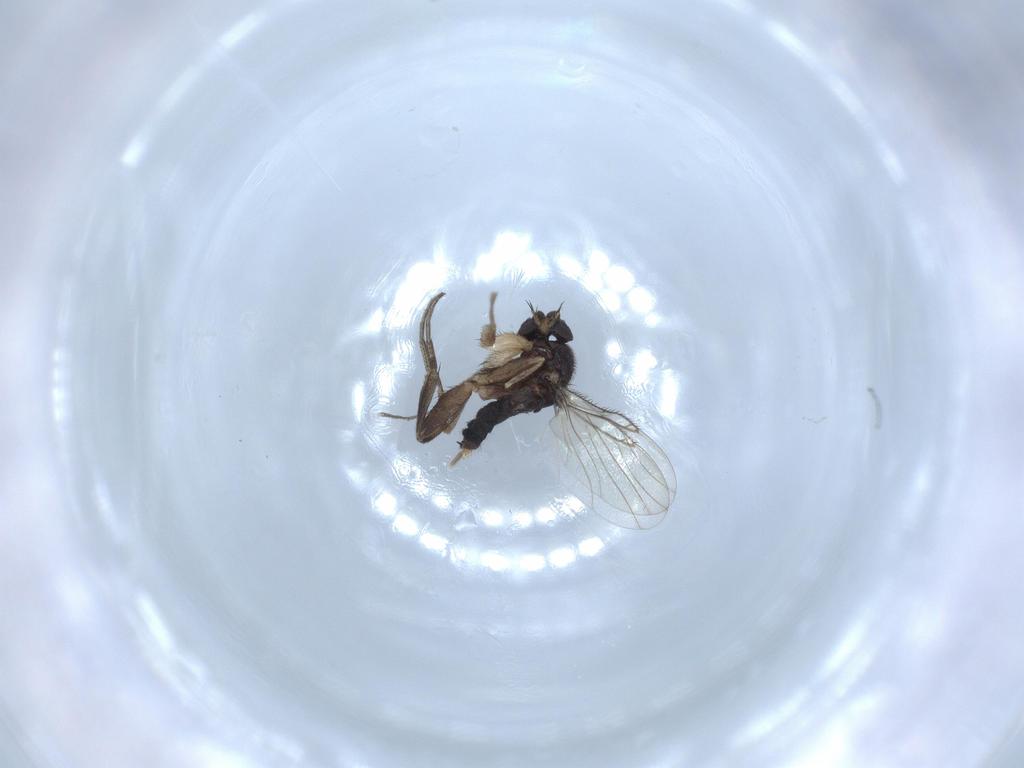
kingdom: Animalia
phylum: Arthropoda
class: Insecta
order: Diptera
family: Phoridae
